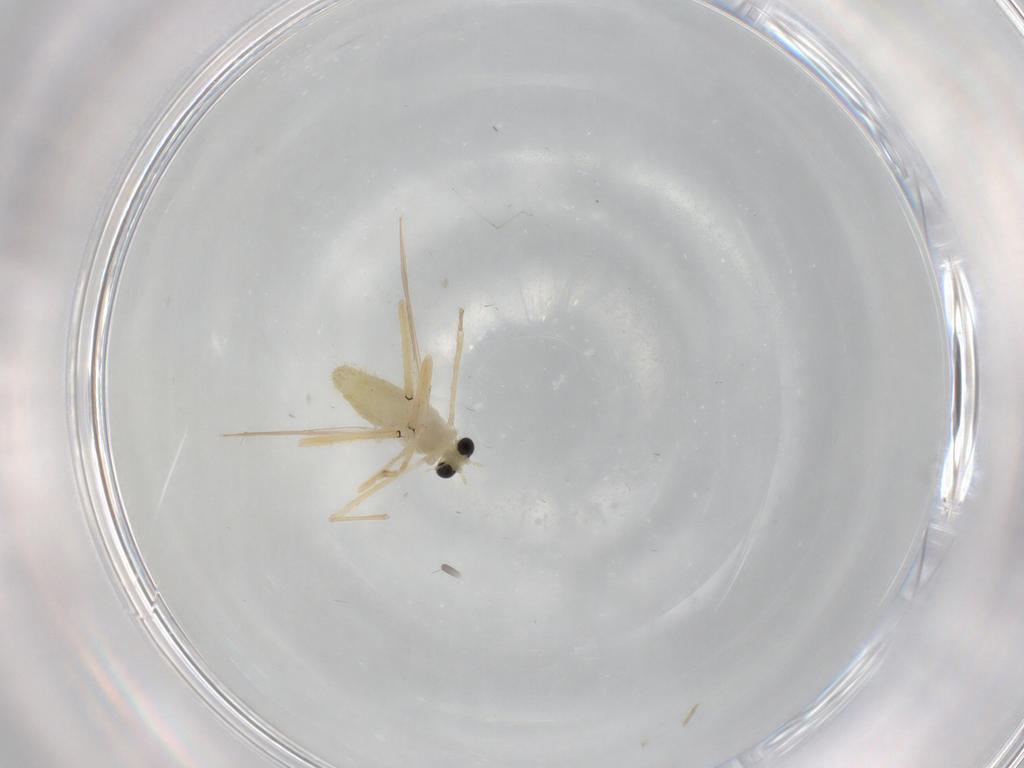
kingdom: Animalia
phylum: Arthropoda
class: Insecta
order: Diptera
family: Chironomidae
